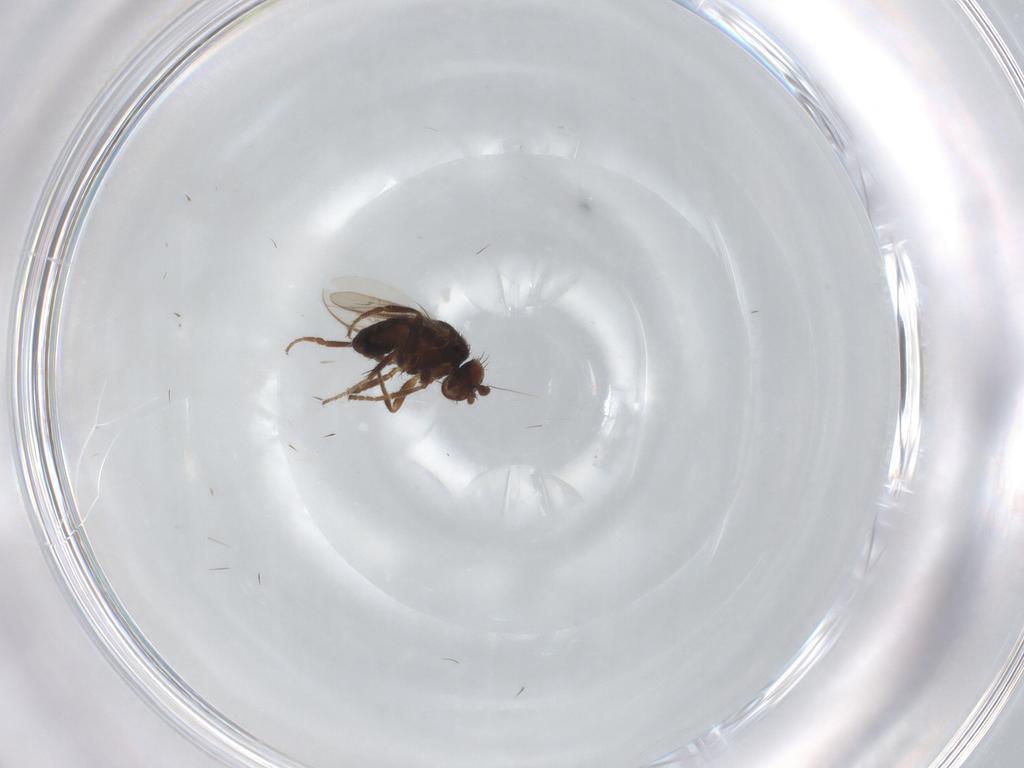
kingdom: Animalia
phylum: Arthropoda
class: Insecta
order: Diptera
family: Sphaeroceridae
